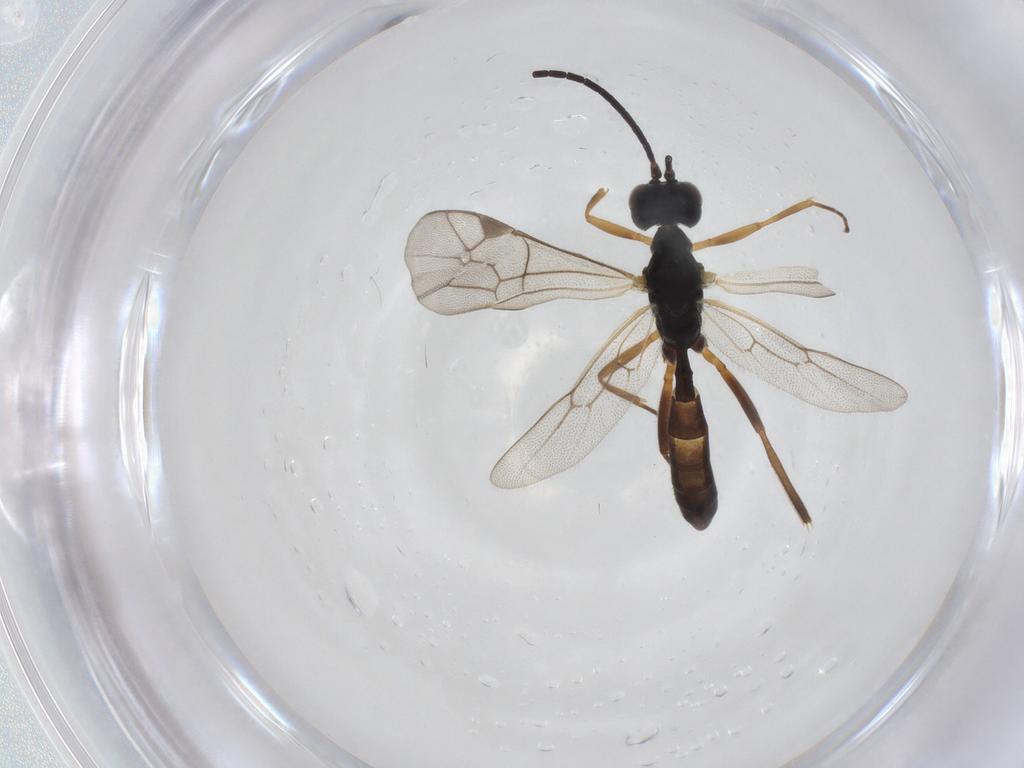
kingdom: Animalia
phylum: Arthropoda
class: Insecta
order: Hymenoptera
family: Ichneumonidae
